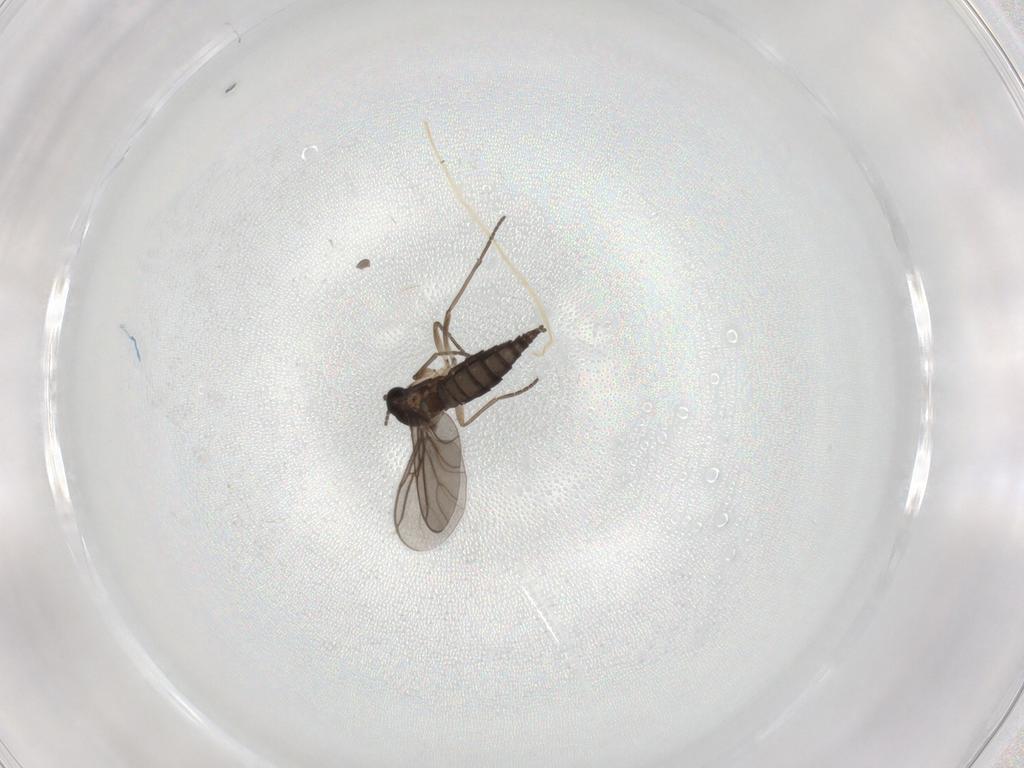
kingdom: Animalia
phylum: Arthropoda
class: Insecta
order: Diptera
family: Sciaridae
